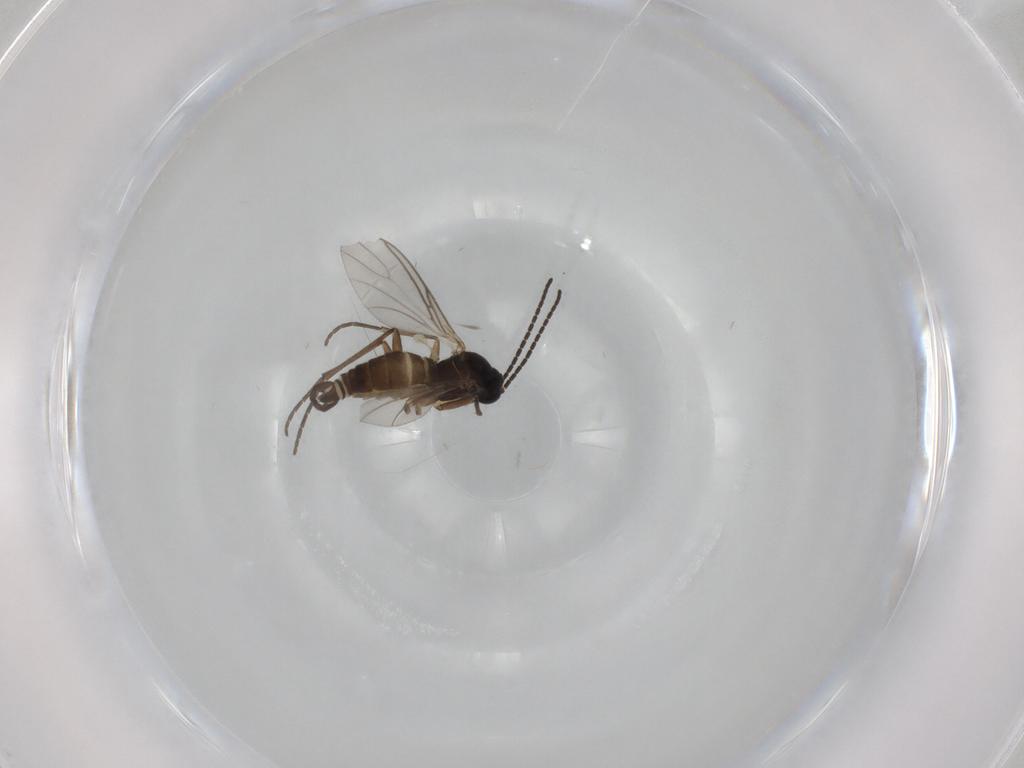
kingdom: Animalia
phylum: Arthropoda
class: Insecta
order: Diptera
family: Sciaridae
